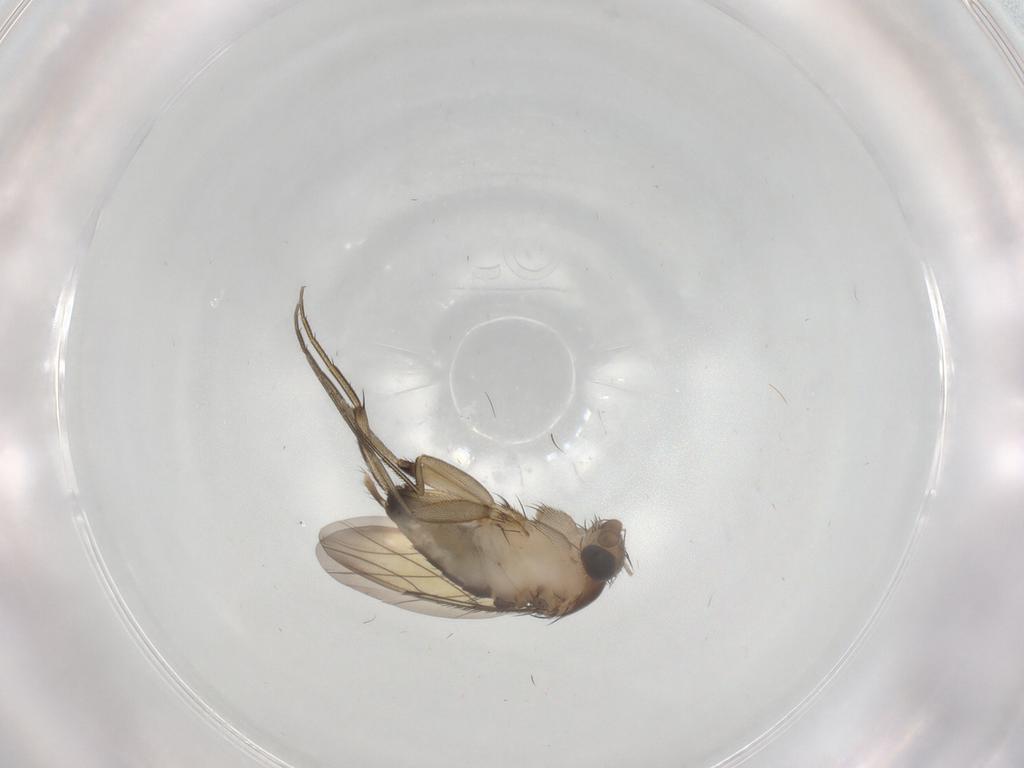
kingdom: Animalia
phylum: Arthropoda
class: Insecta
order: Diptera
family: Phoridae
